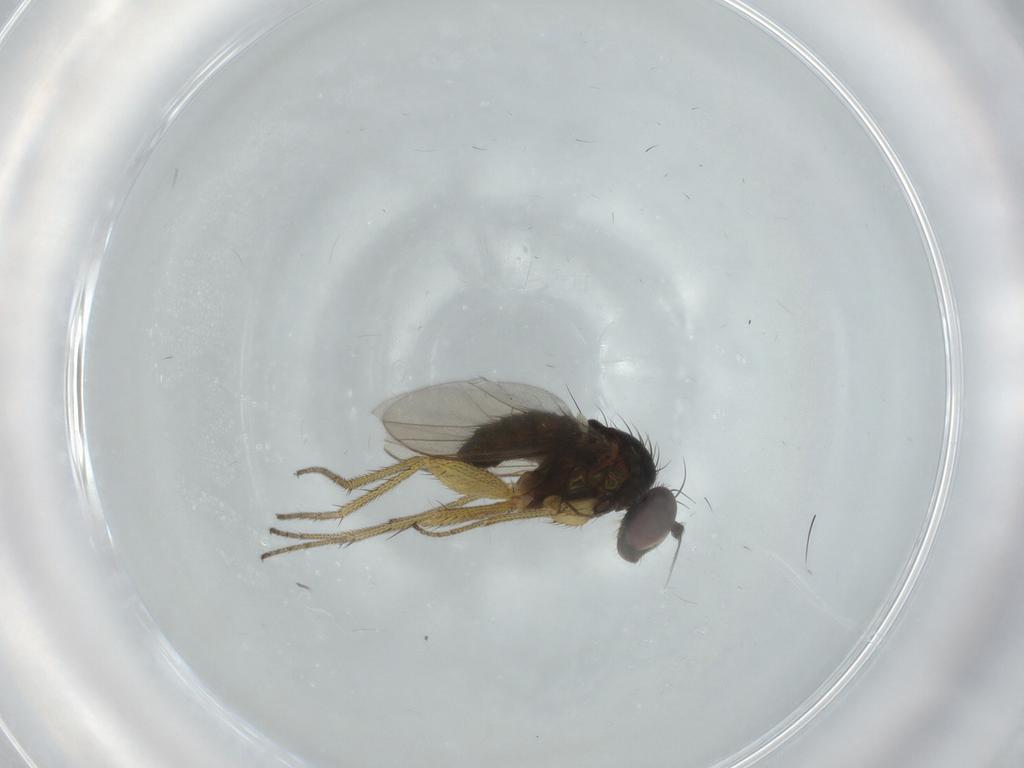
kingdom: Animalia
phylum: Arthropoda
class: Insecta
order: Diptera
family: Dolichopodidae
